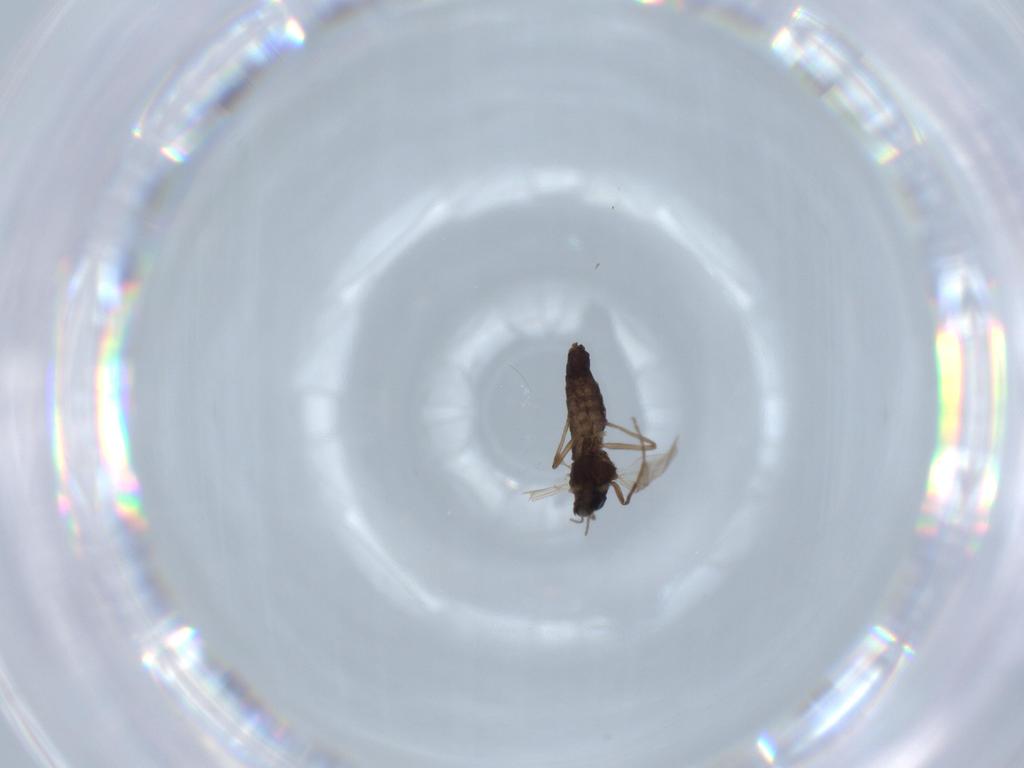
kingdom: Animalia
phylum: Arthropoda
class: Insecta
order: Diptera
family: Chironomidae
